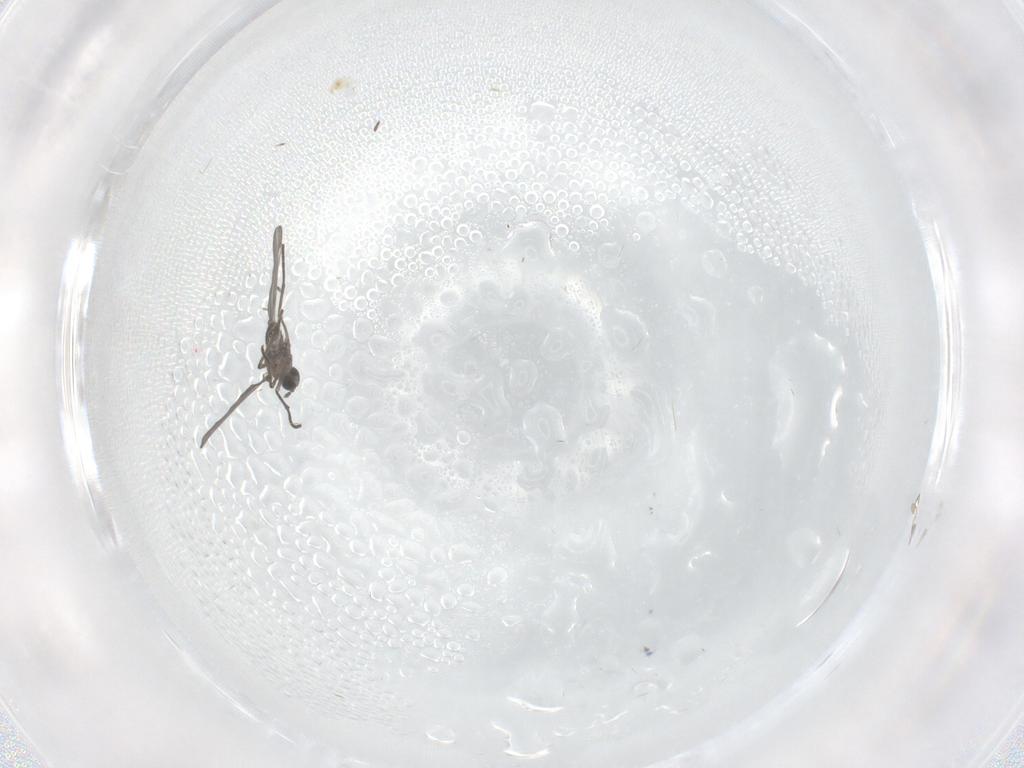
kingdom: Animalia
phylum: Arthropoda
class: Insecta
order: Diptera
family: Sciaridae
